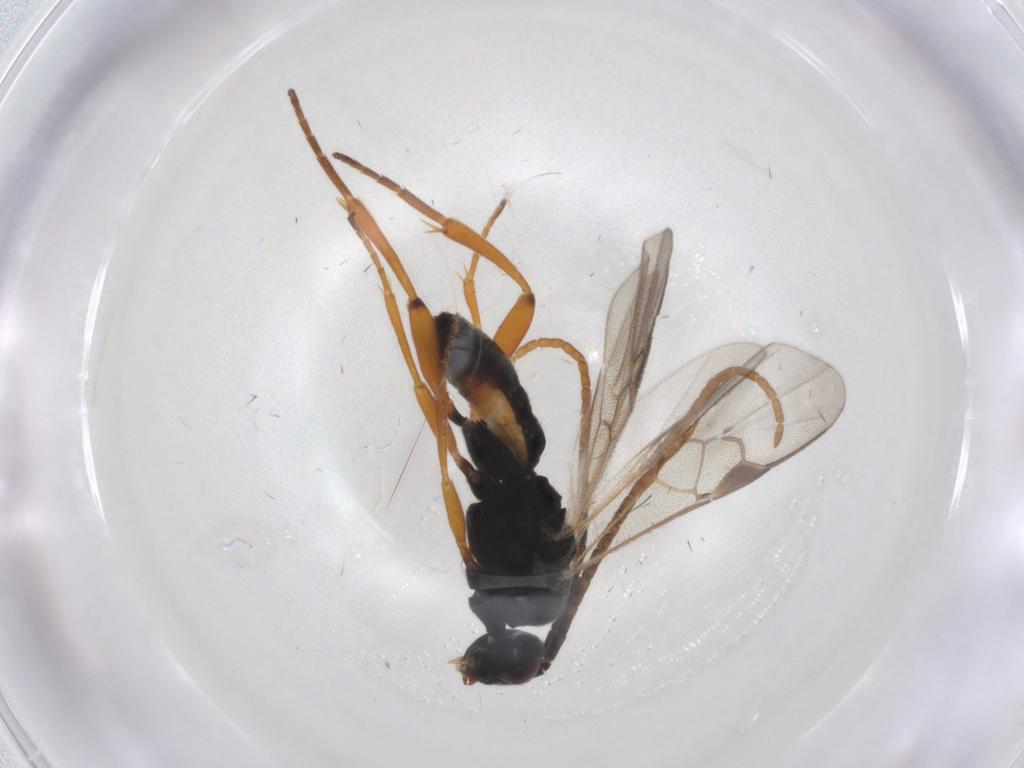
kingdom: Animalia
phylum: Arthropoda
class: Insecta
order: Hymenoptera
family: Braconidae
